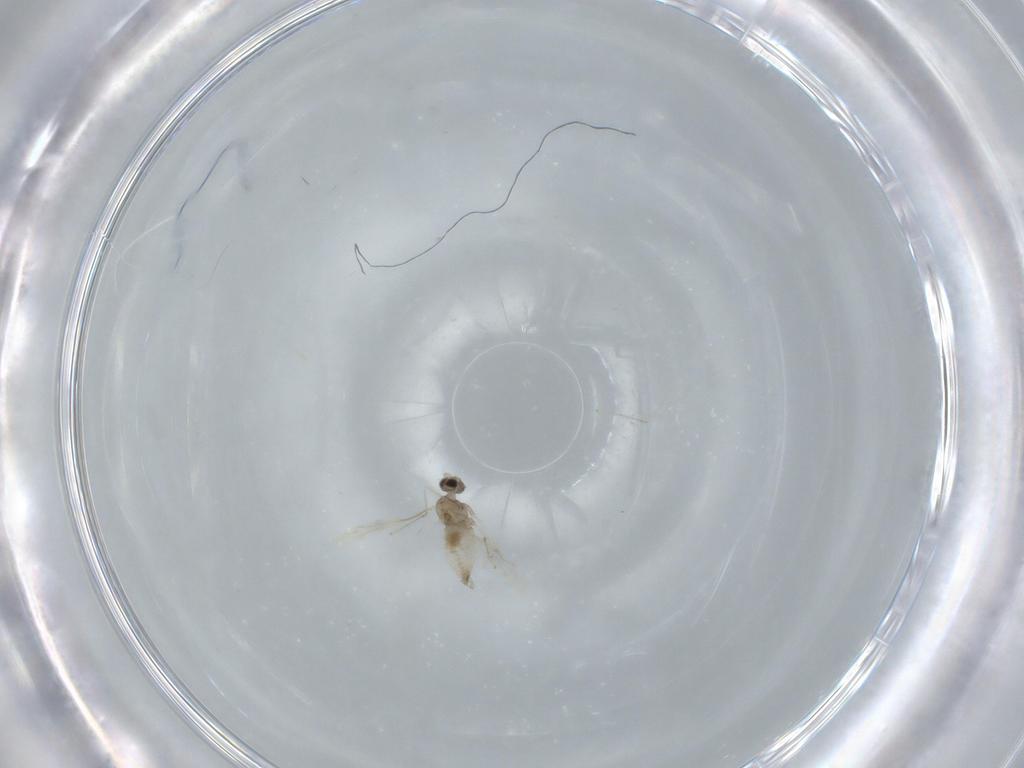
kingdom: Animalia
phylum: Arthropoda
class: Insecta
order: Diptera
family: Cecidomyiidae
